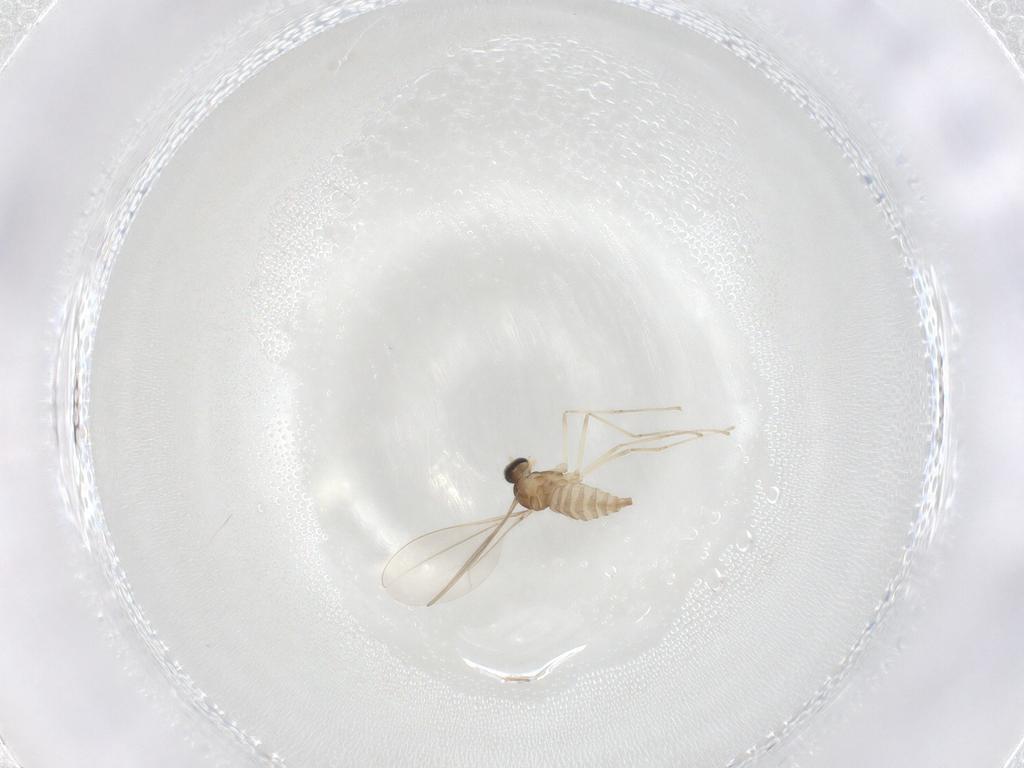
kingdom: Animalia
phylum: Arthropoda
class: Insecta
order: Diptera
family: Cecidomyiidae
